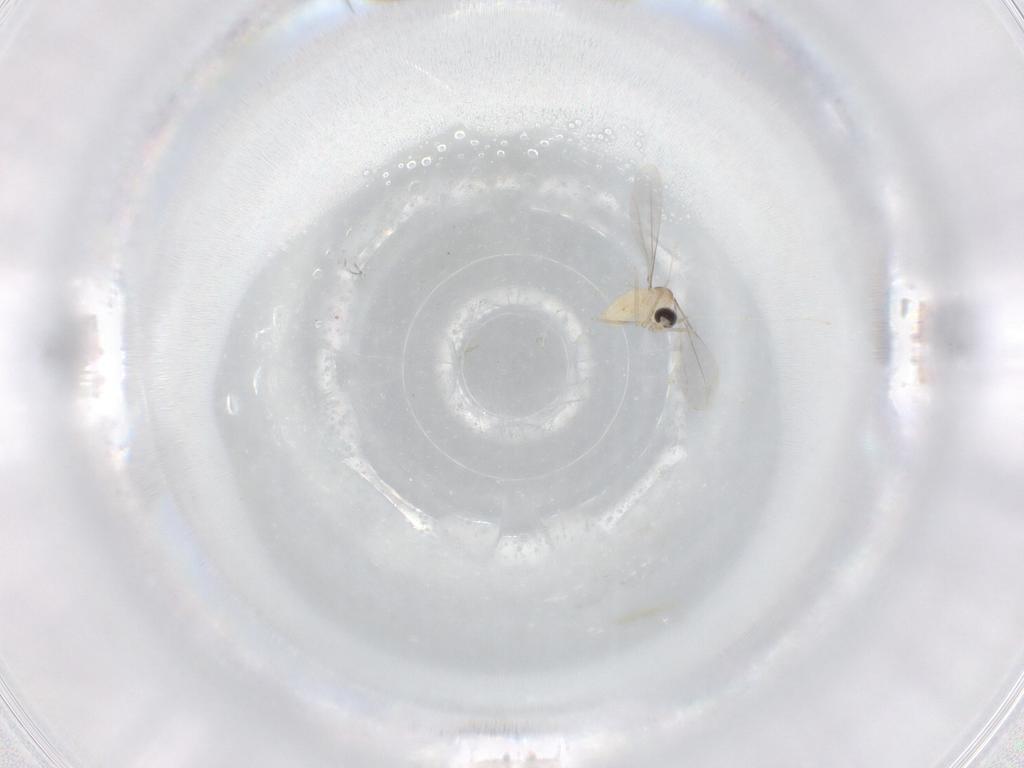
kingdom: Animalia
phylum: Arthropoda
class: Insecta
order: Diptera
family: Cecidomyiidae
